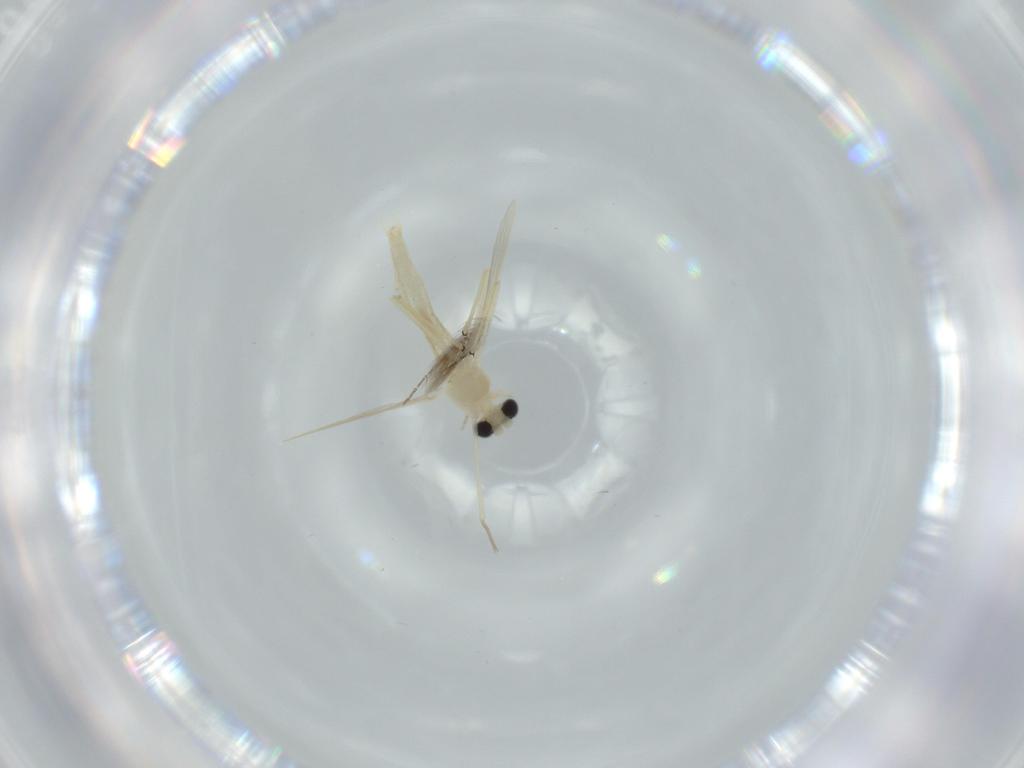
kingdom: Animalia
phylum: Arthropoda
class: Insecta
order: Diptera
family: Chironomidae
